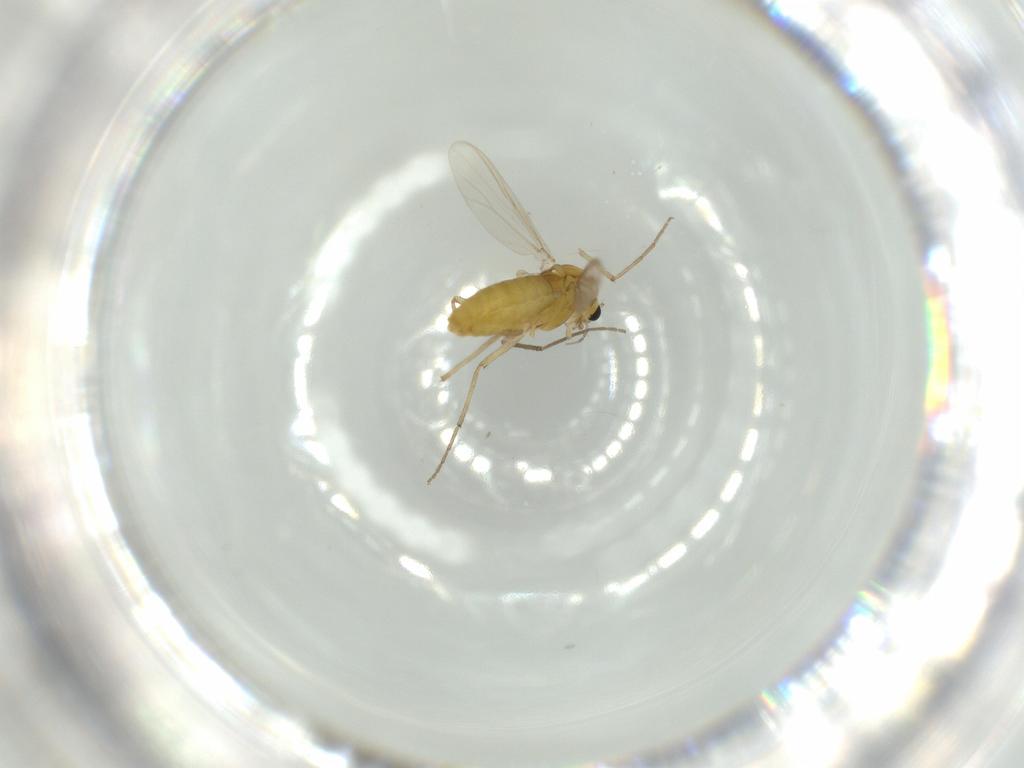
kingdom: Animalia
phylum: Arthropoda
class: Insecta
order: Diptera
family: Chironomidae
